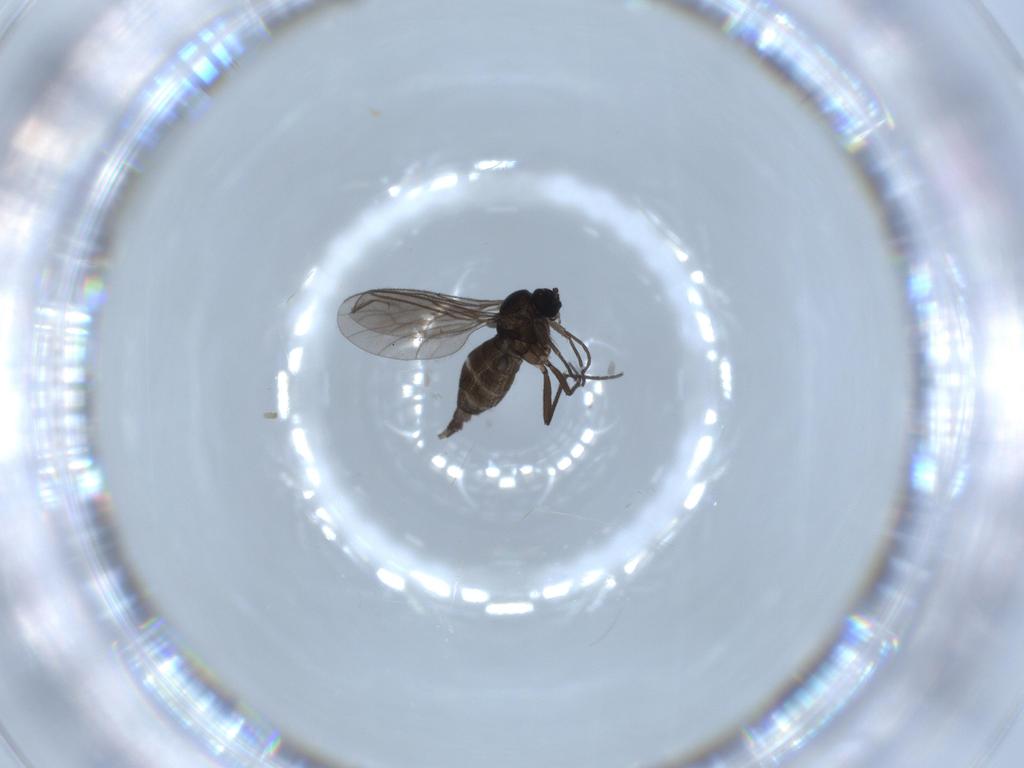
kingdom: Animalia
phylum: Arthropoda
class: Insecta
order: Diptera
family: Sciaridae
